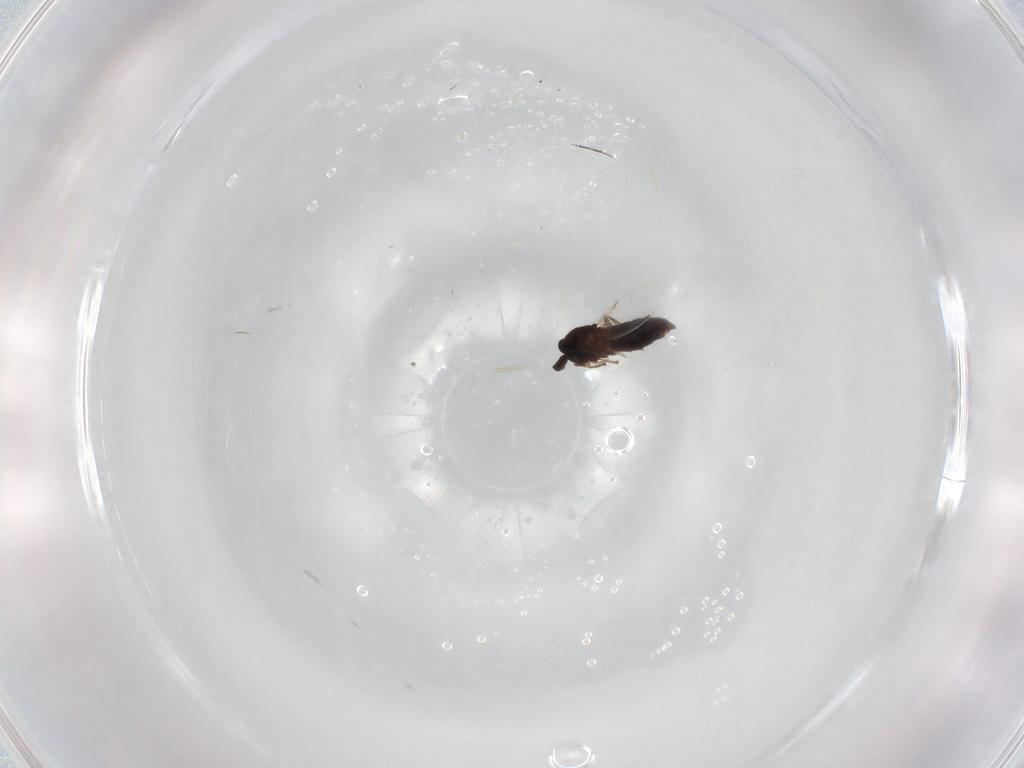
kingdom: Animalia
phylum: Arthropoda
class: Insecta
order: Diptera
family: Scatopsidae
